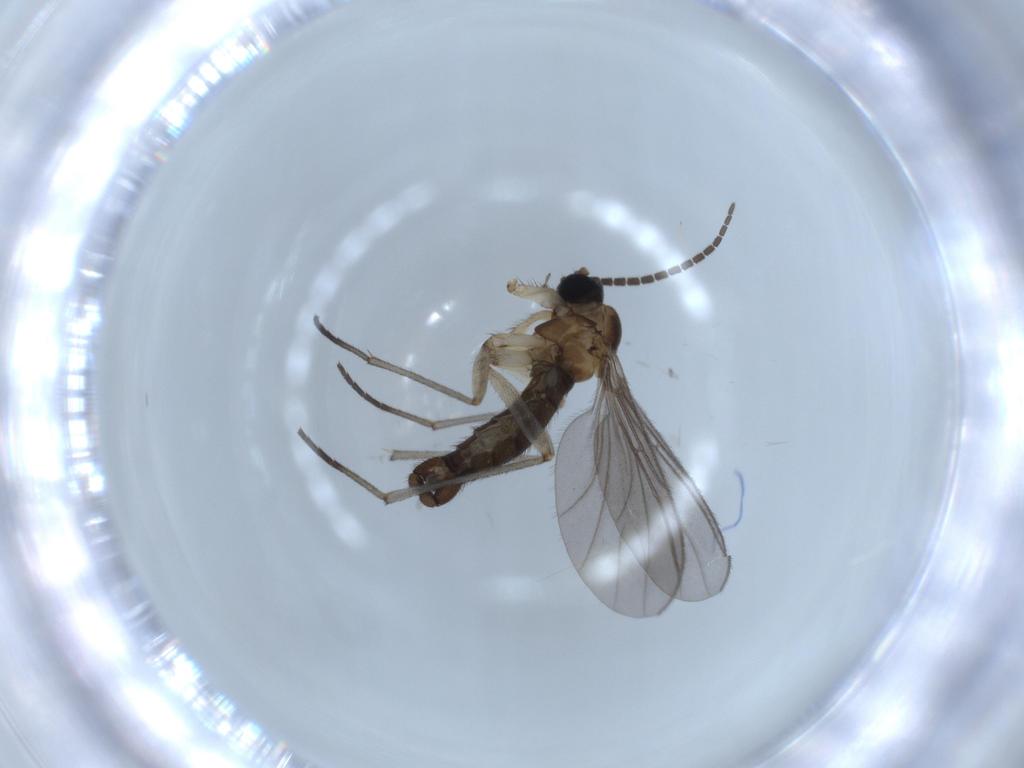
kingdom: Animalia
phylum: Arthropoda
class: Insecta
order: Diptera
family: Sciaridae
